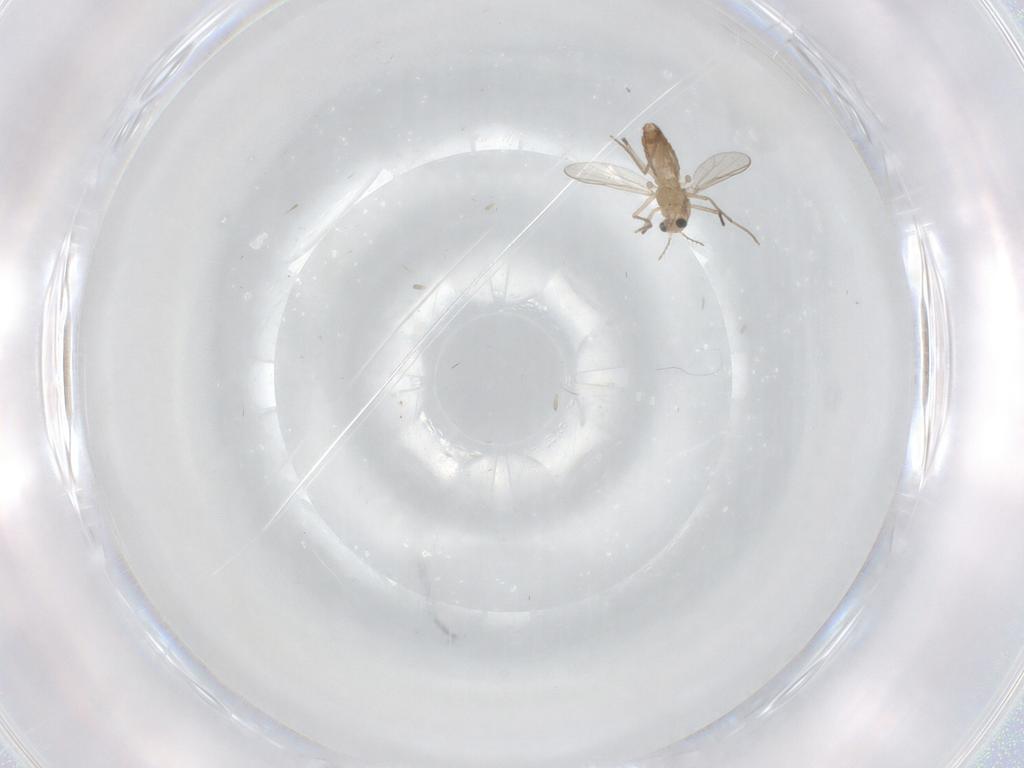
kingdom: Animalia
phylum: Arthropoda
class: Insecta
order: Diptera
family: Chironomidae
